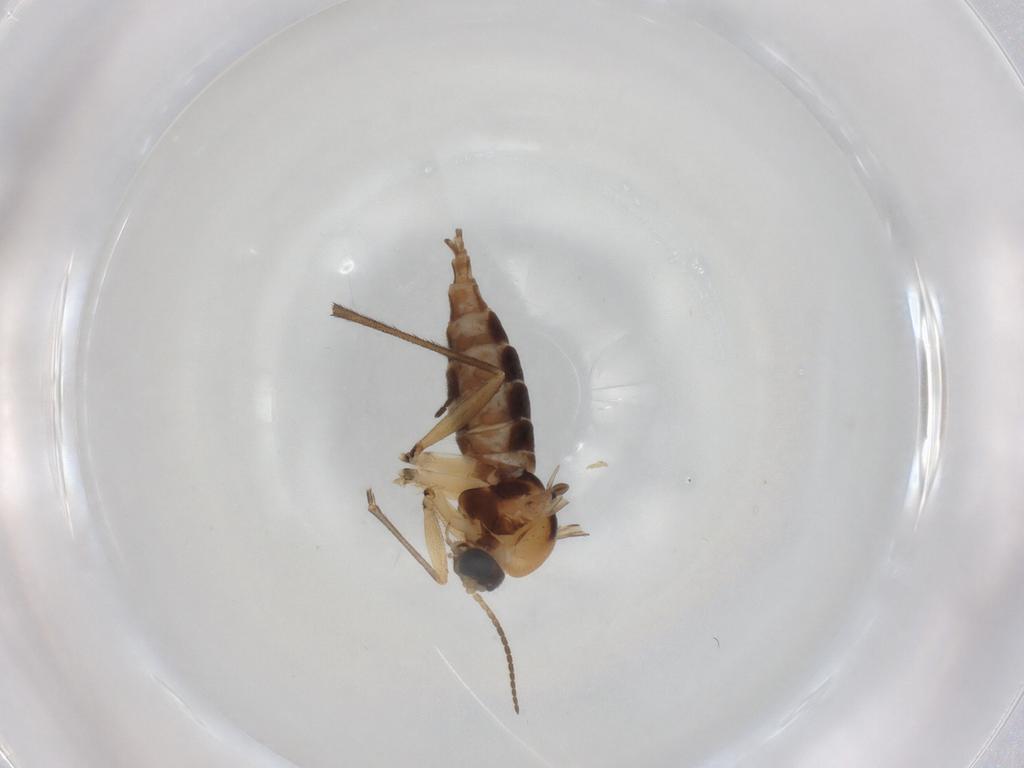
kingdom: Animalia
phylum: Arthropoda
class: Insecta
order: Diptera
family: Sciaridae
